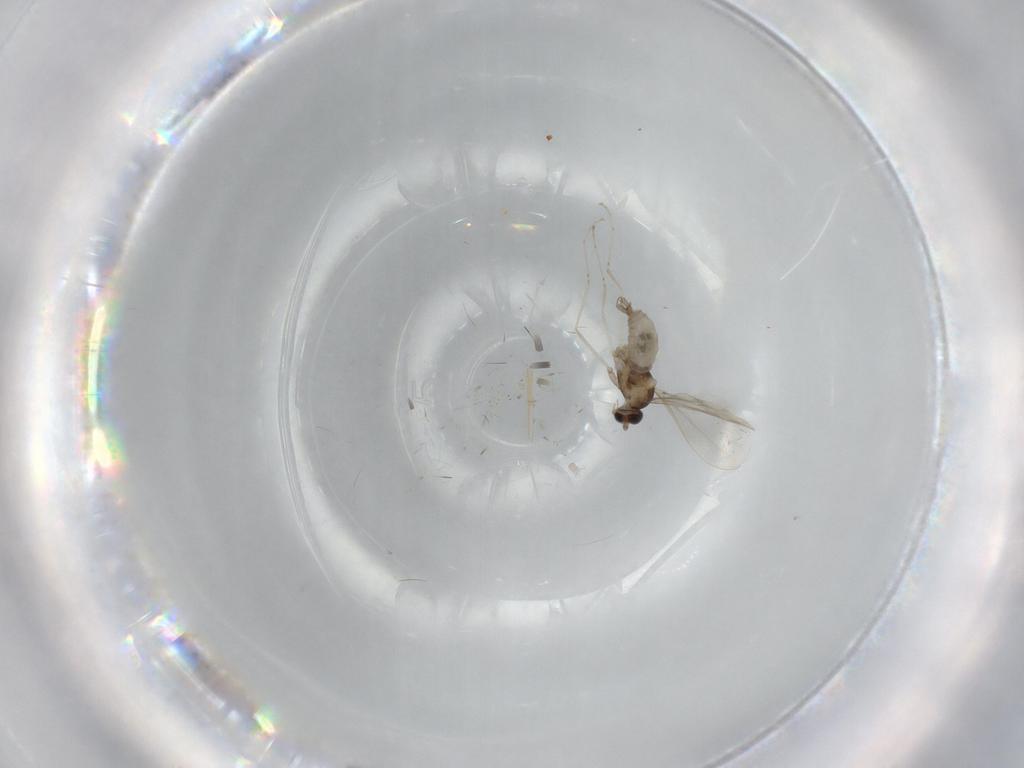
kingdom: Animalia
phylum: Arthropoda
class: Insecta
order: Diptera
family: Cecidomyiidae
